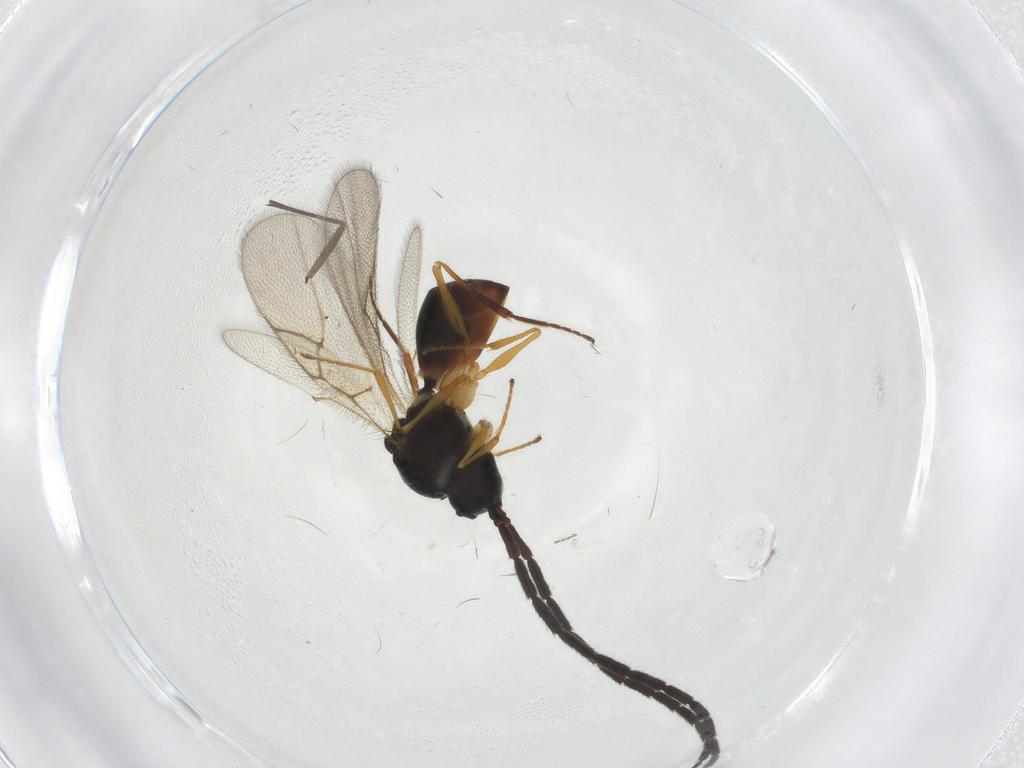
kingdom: Animalia
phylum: Arthropoda
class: Insecta
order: Hymenoptera
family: Figitidae
